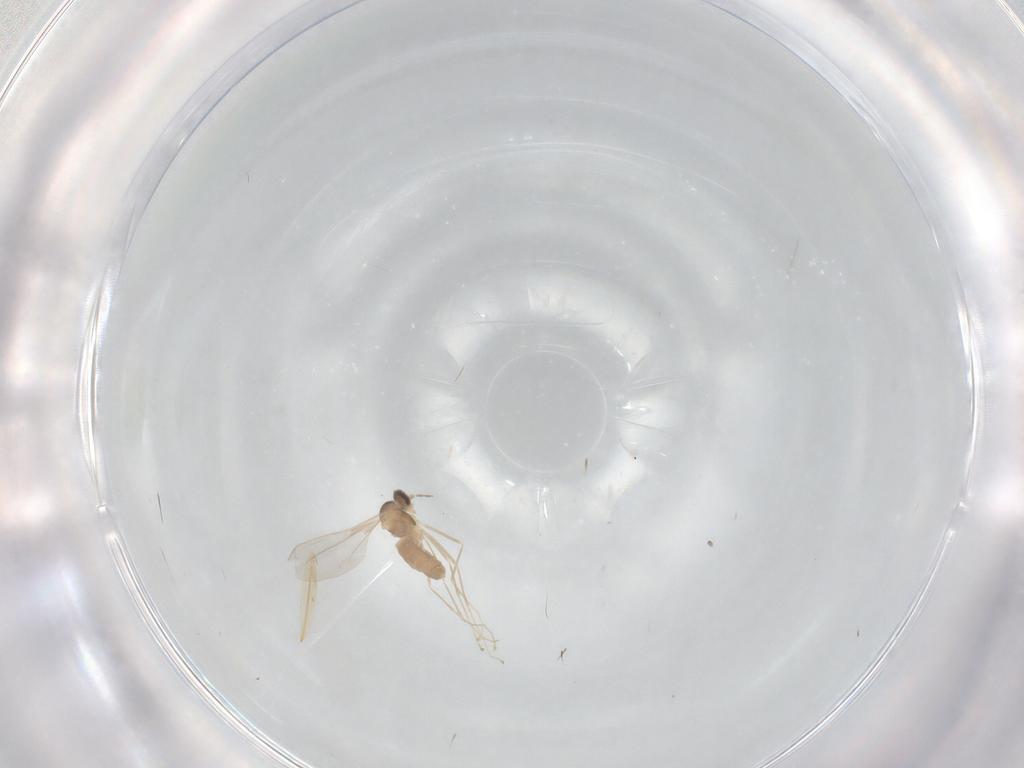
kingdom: Animalia
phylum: Arthropoda
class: Insecta
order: Diptera
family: Cecidomyiidae
